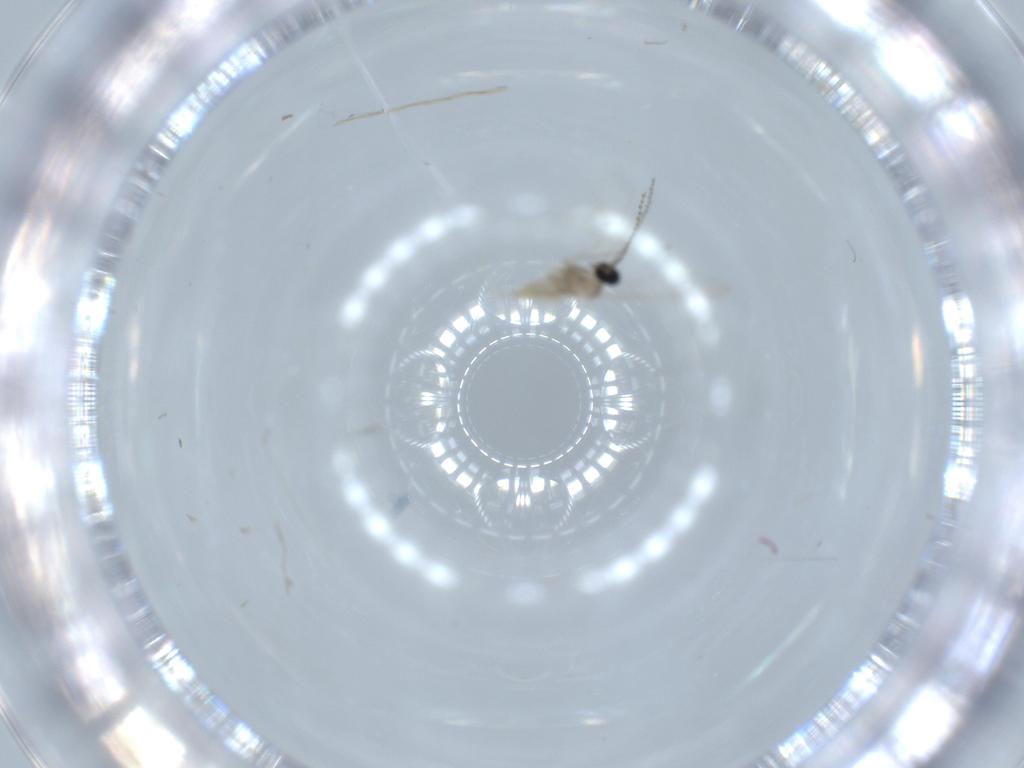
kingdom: Animalia
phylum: Arthropoda
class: Insecta
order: Diptera
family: Cecidomyiidae
